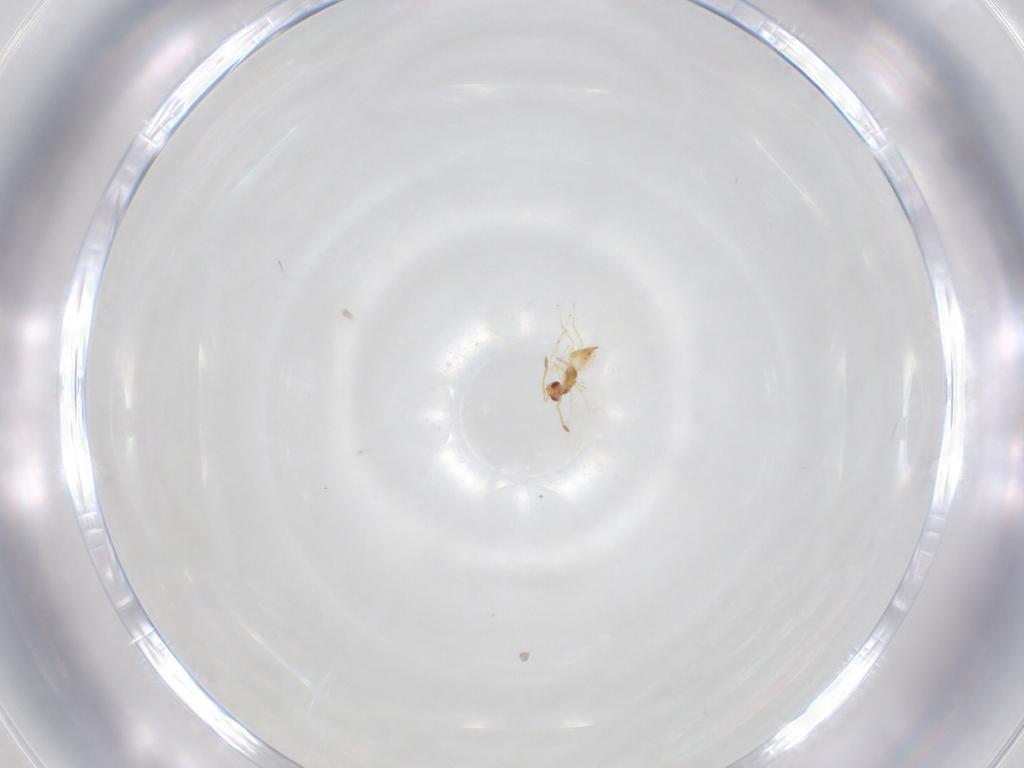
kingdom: Animalia
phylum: Arthropoda
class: Insecta
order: Hymenoptera
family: Mymaridae
